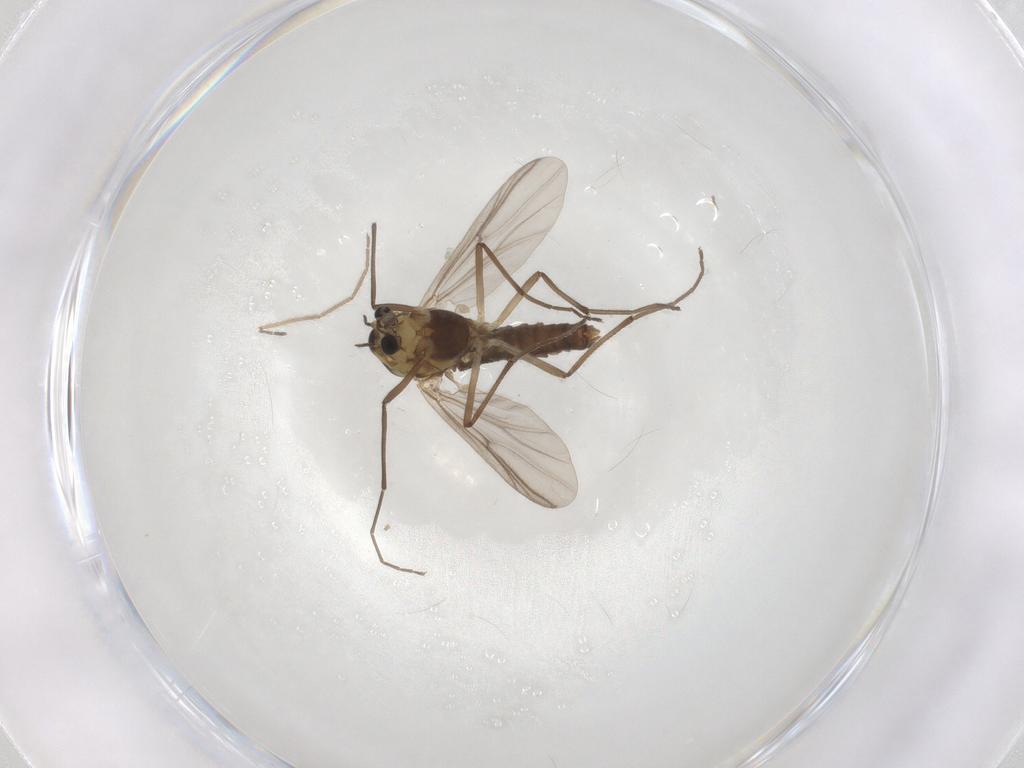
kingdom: Animalia
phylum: Arthropoda
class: Insecta
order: Diptera
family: Chironomidae
